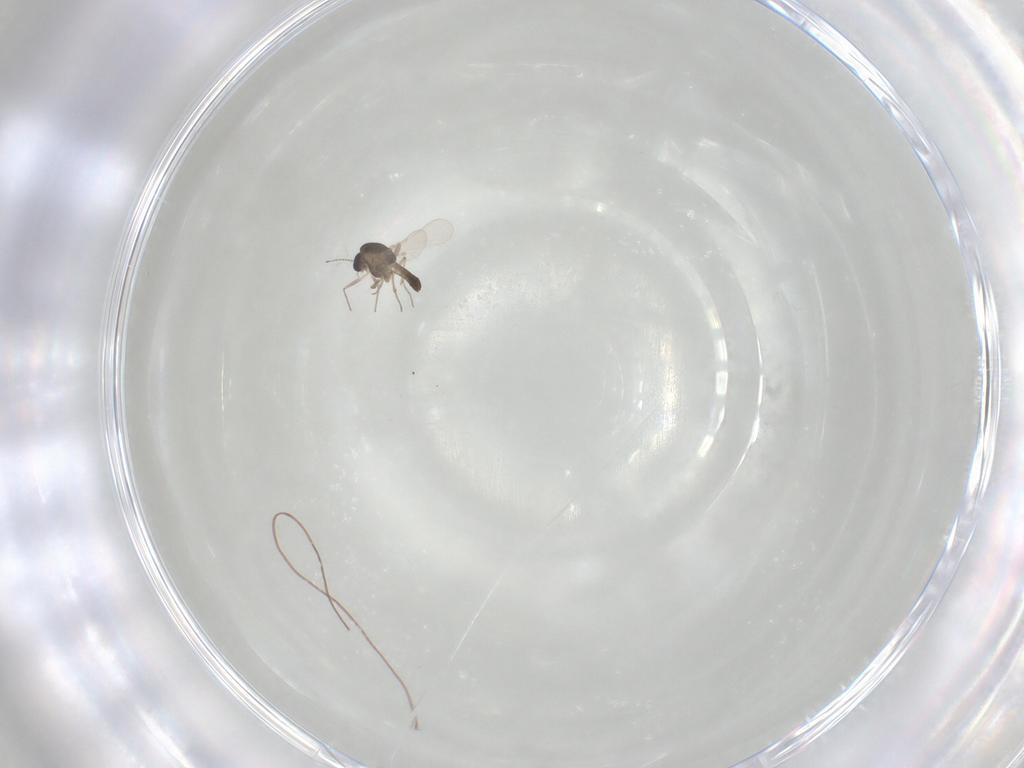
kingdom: Animalia
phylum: Arthropoda
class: Insecta
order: Diptera
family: Chironomidae
